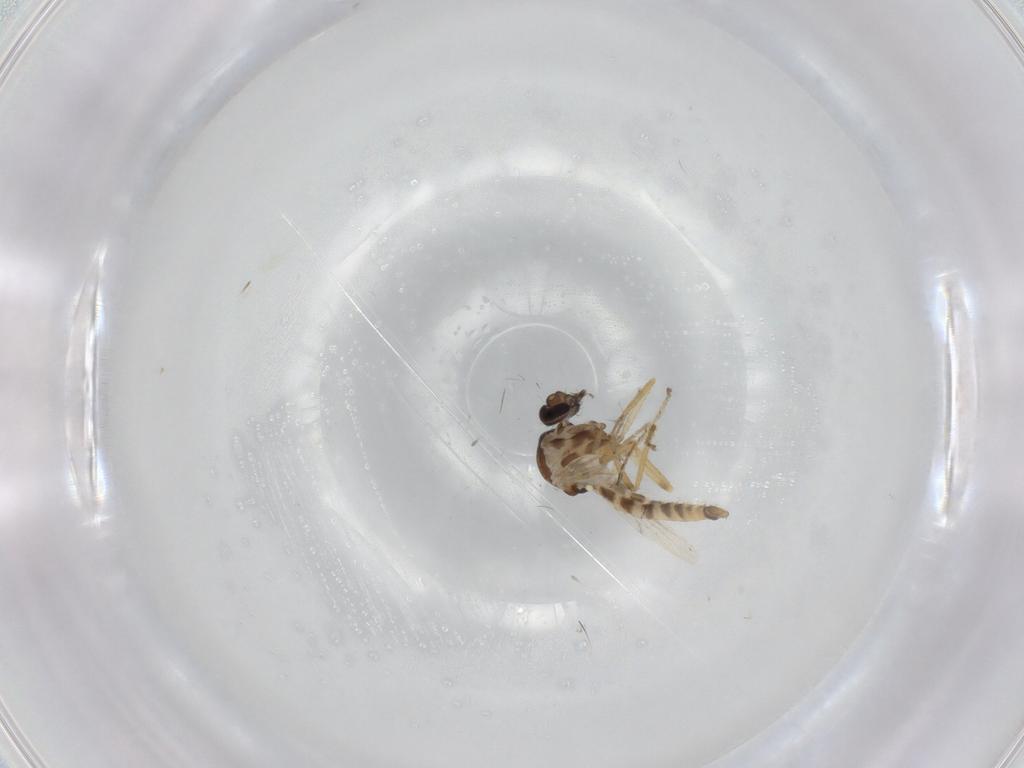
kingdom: Animalia
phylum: Arthropoda
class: Insecta
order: Diptera
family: Ceratopogonidae
